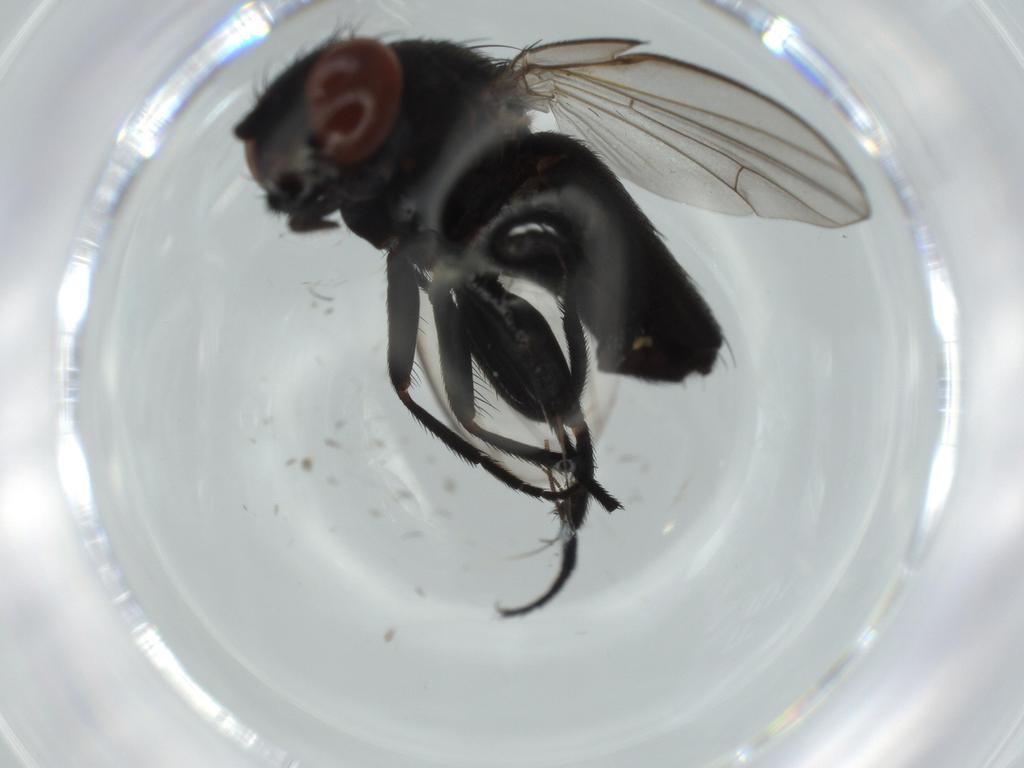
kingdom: Animalia
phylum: Arthropoda
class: Insecta
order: Diptera
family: Milichiidae
